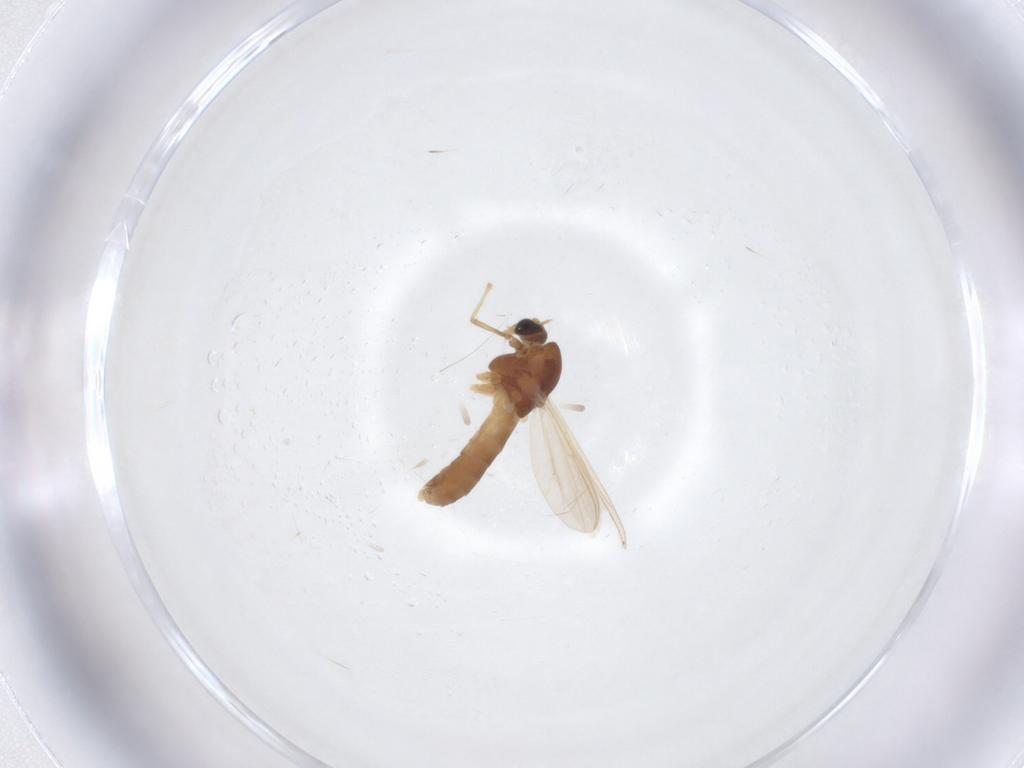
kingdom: Animalia
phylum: Arthropoda
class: Insecta
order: Diptera
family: Chironomidae
